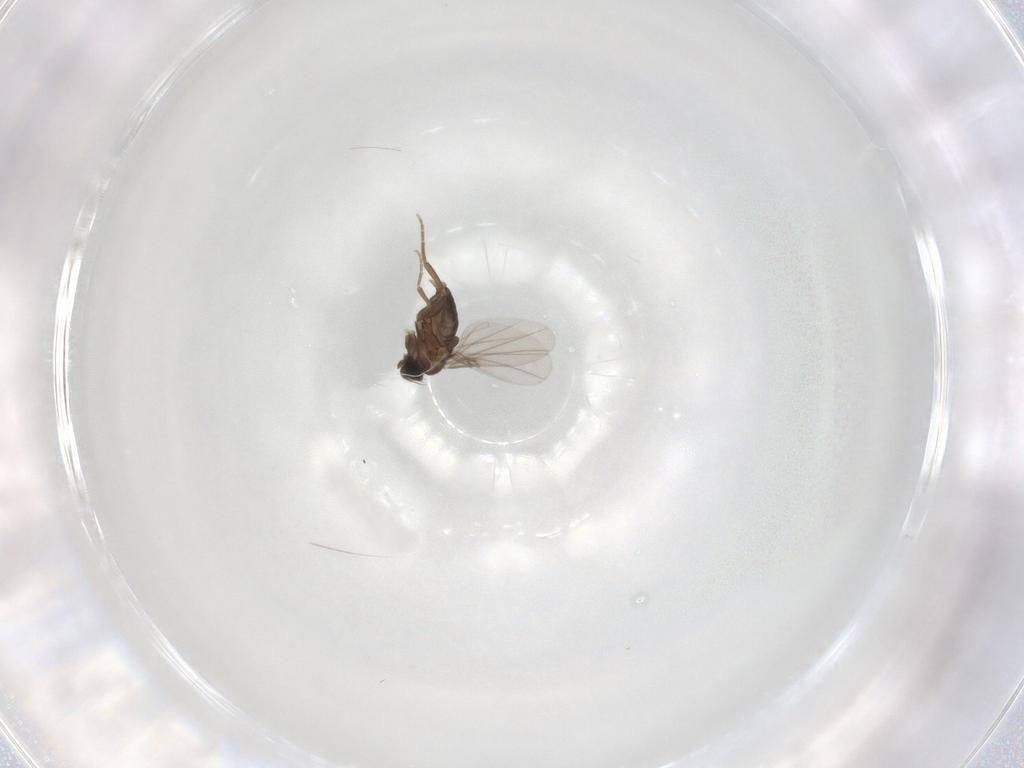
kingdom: Animalia
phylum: Arthropoda
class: Insecta
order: Diptera
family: Phoridae
